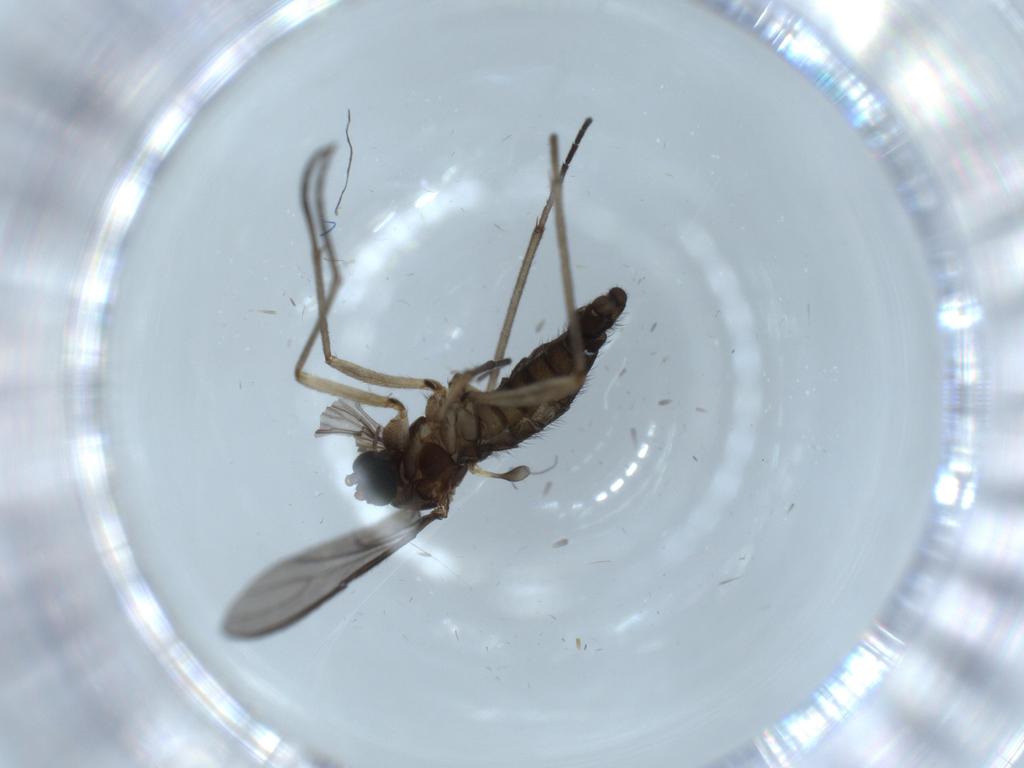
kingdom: Animalia
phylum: Arthropoda
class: Insecta
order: Diptera
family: Sciaridae
